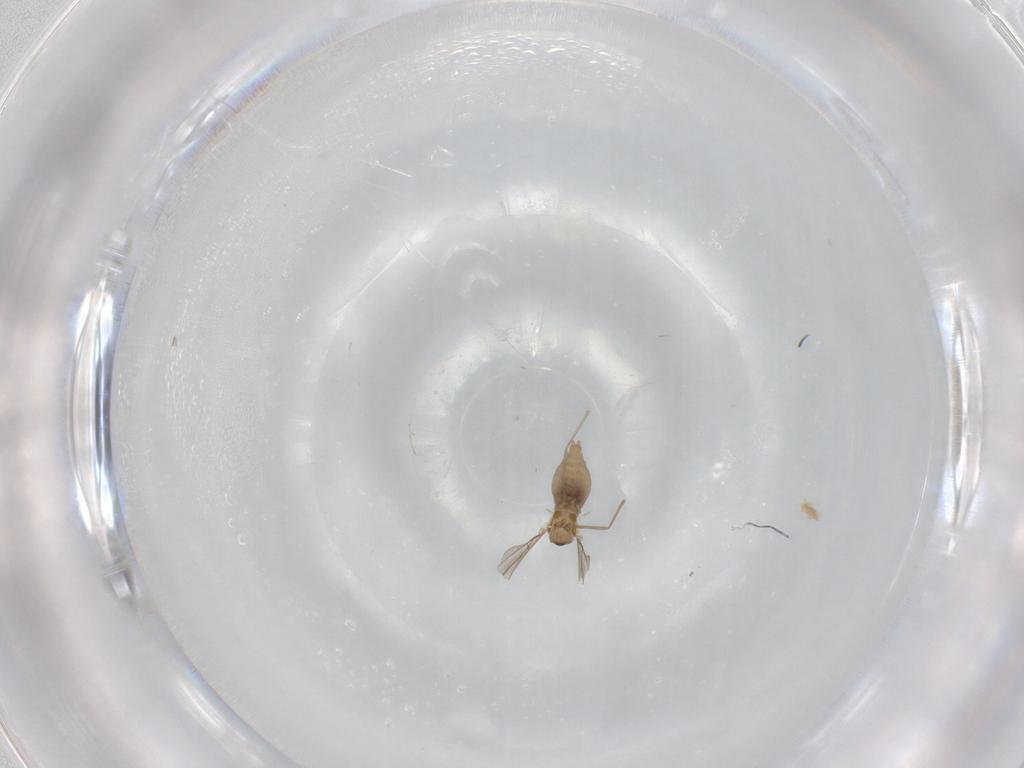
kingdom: Animalia
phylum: Arthropoda
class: Insecta
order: Diptera
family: Cecidomyiidae
